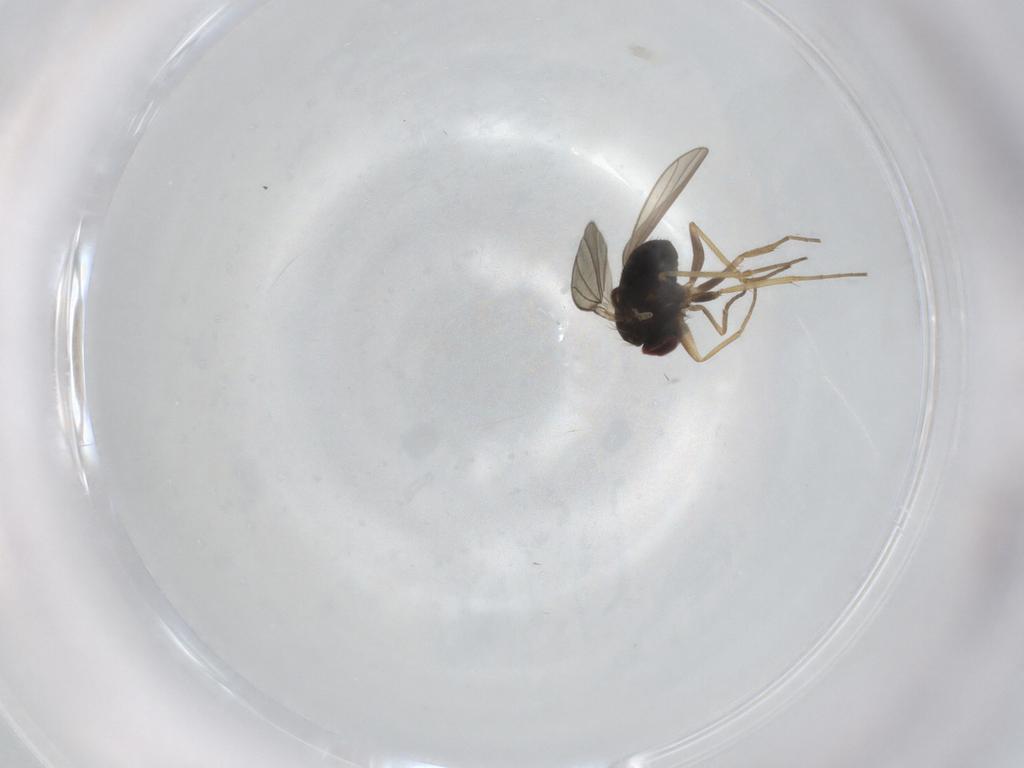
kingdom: Animalia
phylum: Arthropoda
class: Insecta
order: Diptera
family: Dolichopodidae
